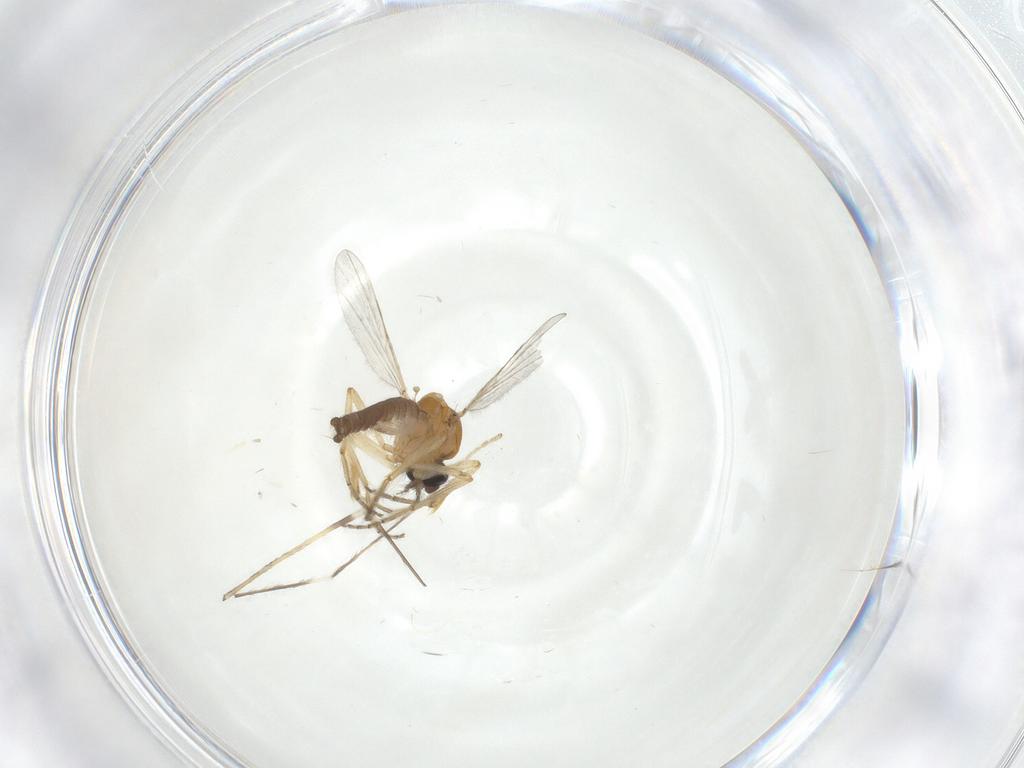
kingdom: Animalia
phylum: Arthropoda
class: Insecta
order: Diptera
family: Ceratopogonidae
